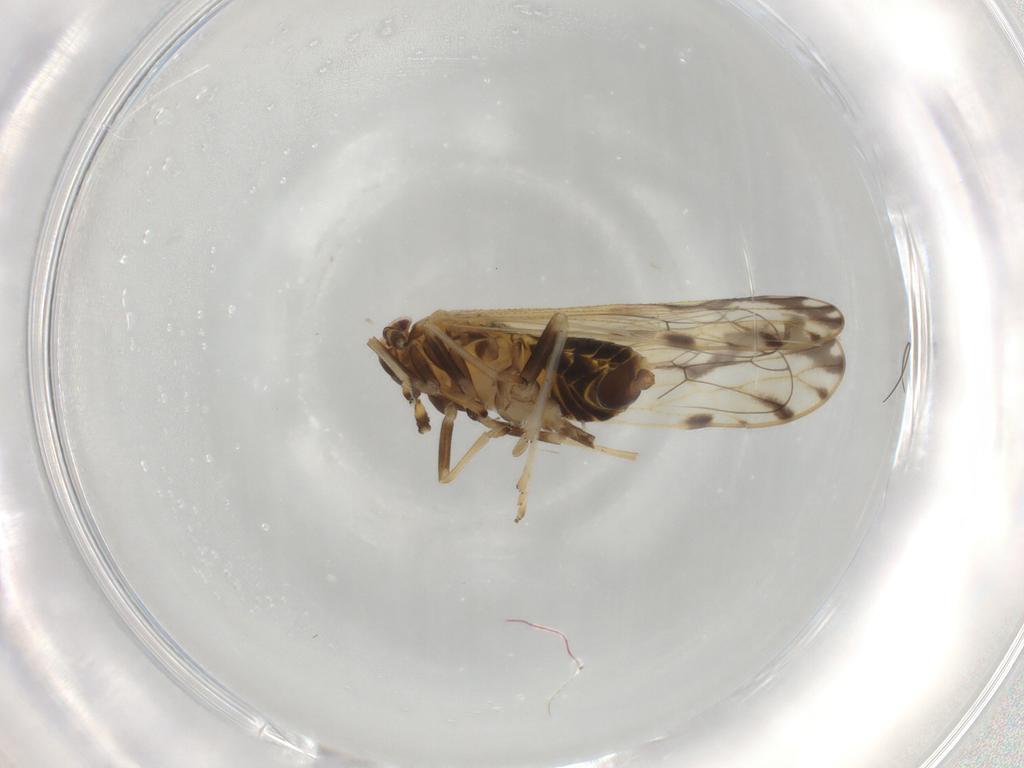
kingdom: Animalia
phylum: Arthropoda
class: Insecta
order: Hemiptera
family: Delphacidae
